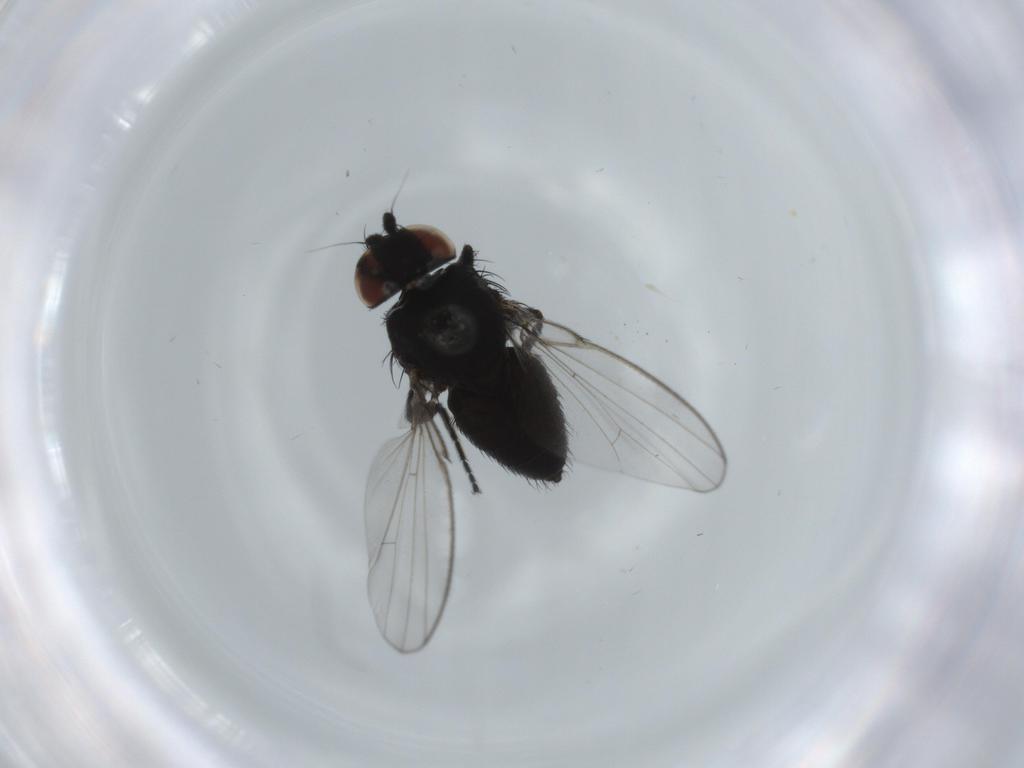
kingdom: Animalia
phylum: Arthropoda
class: Insecta
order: Diptera
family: Milichiidae
